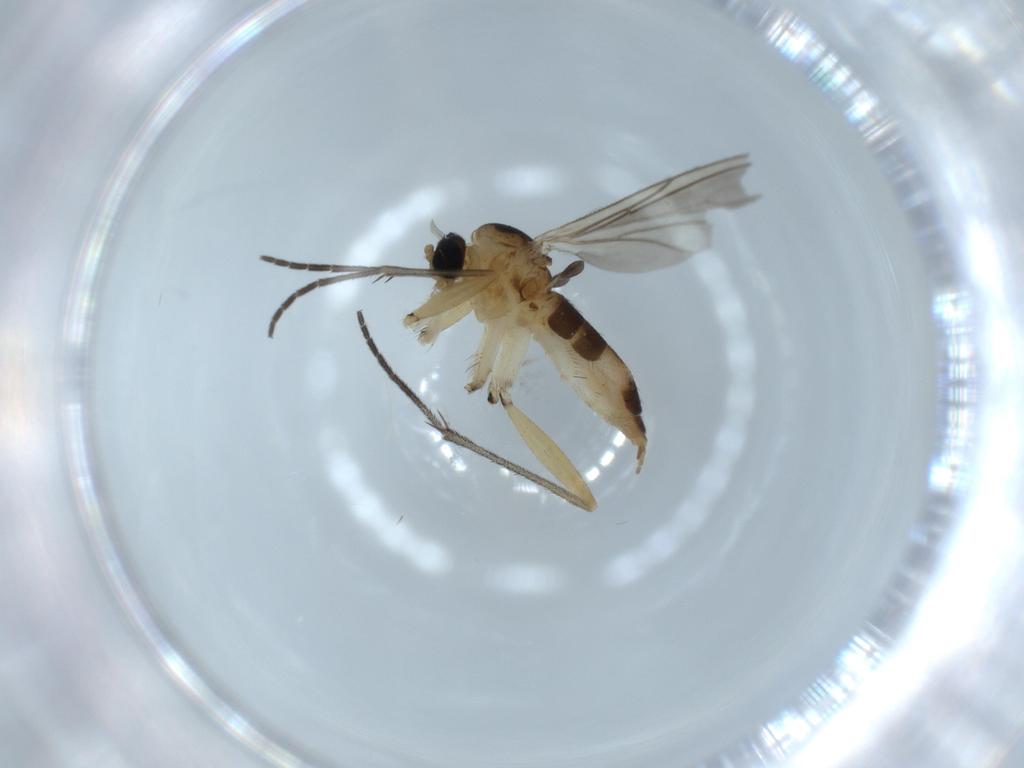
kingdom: Animalia
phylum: Arthropoda
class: Insecta
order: Diptera
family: Sciaridae
